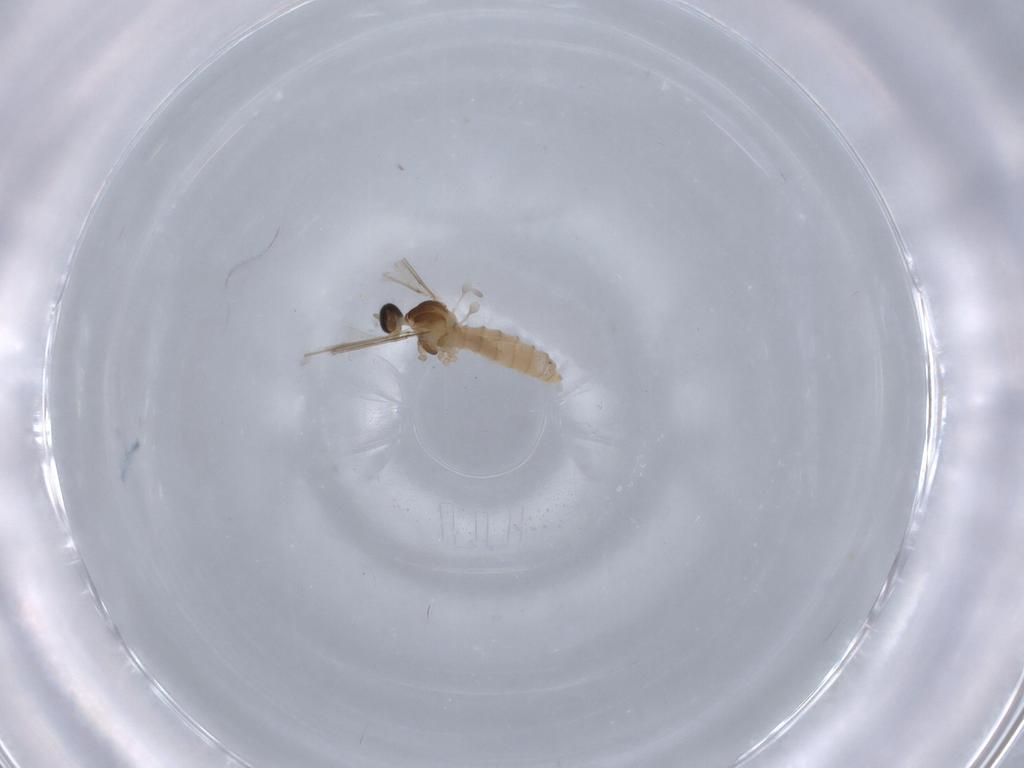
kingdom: Animalia
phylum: Arthropoda
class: Insecta
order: Diptera
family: Cecidomyiidae
